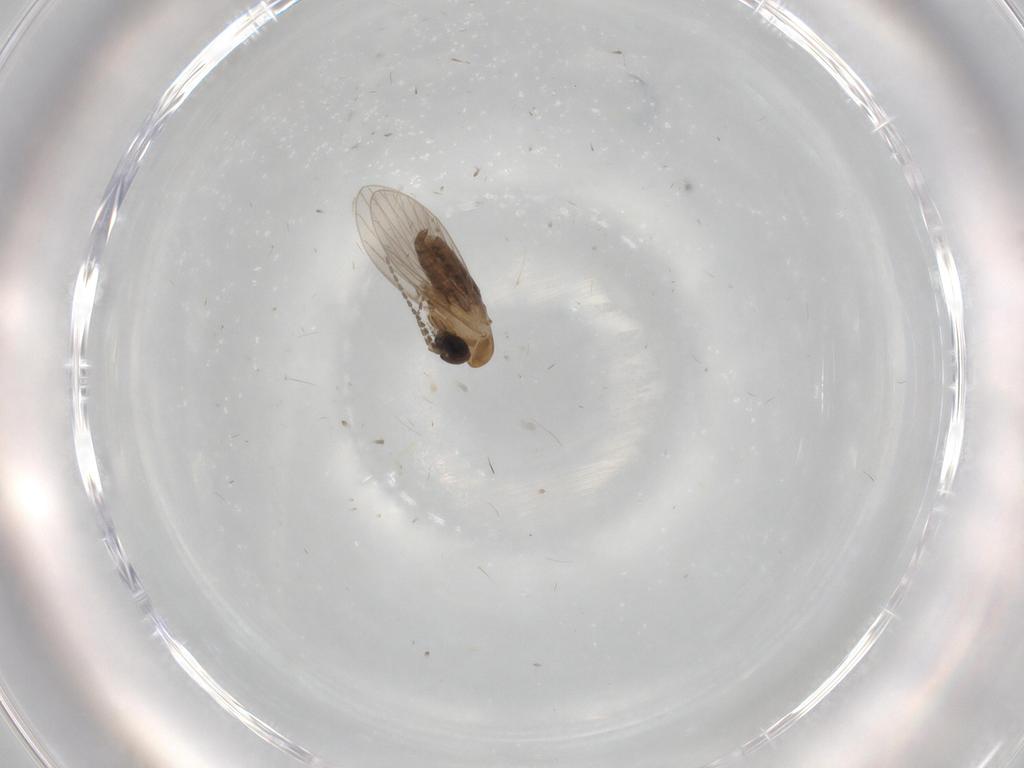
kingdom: Animalia
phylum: Arthropoda
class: Insecta
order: Diptera
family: Psychodidae
